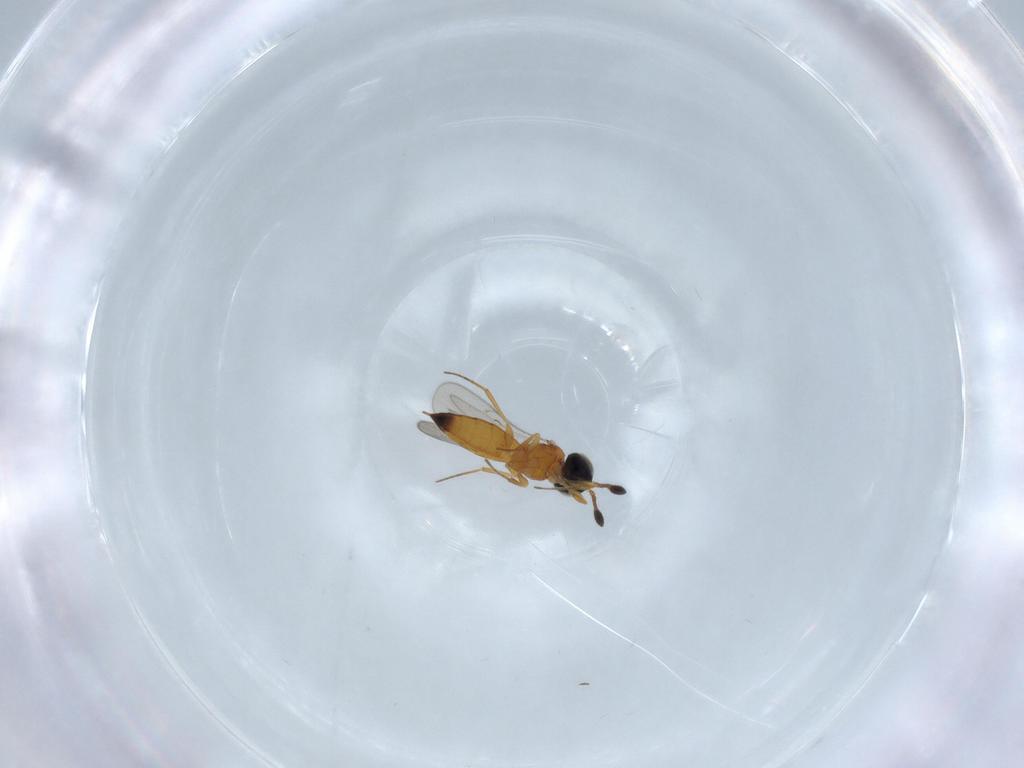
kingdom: Animalia
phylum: Arthropoda
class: Insecta
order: Hymenoptera
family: Scelionidae
